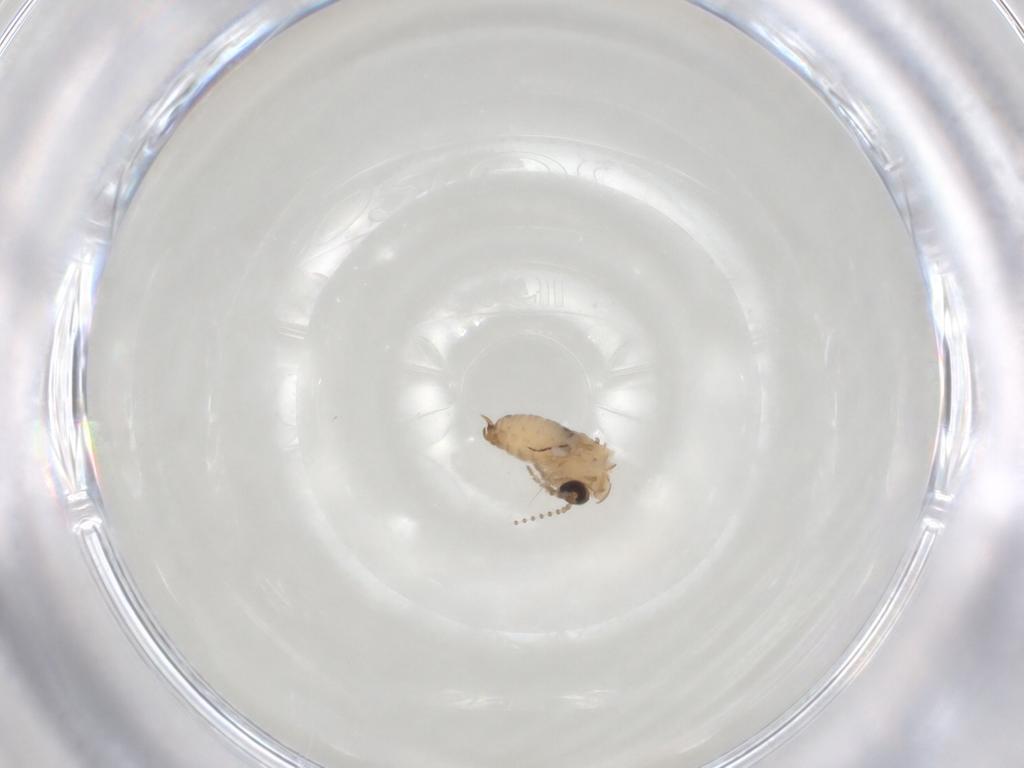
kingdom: Animalia
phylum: Arthropoda
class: Insecta
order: Diptera
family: Psychodidae
